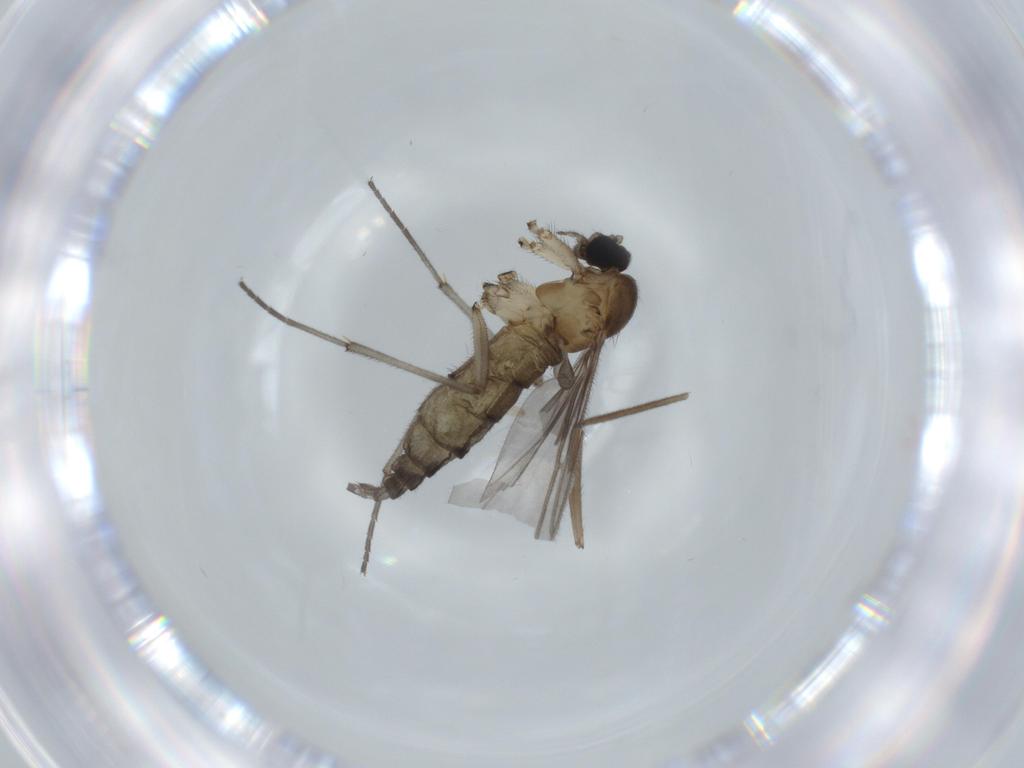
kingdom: Animalia
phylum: Arthropoda
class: Insecta
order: Diptera
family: Sciaridae
